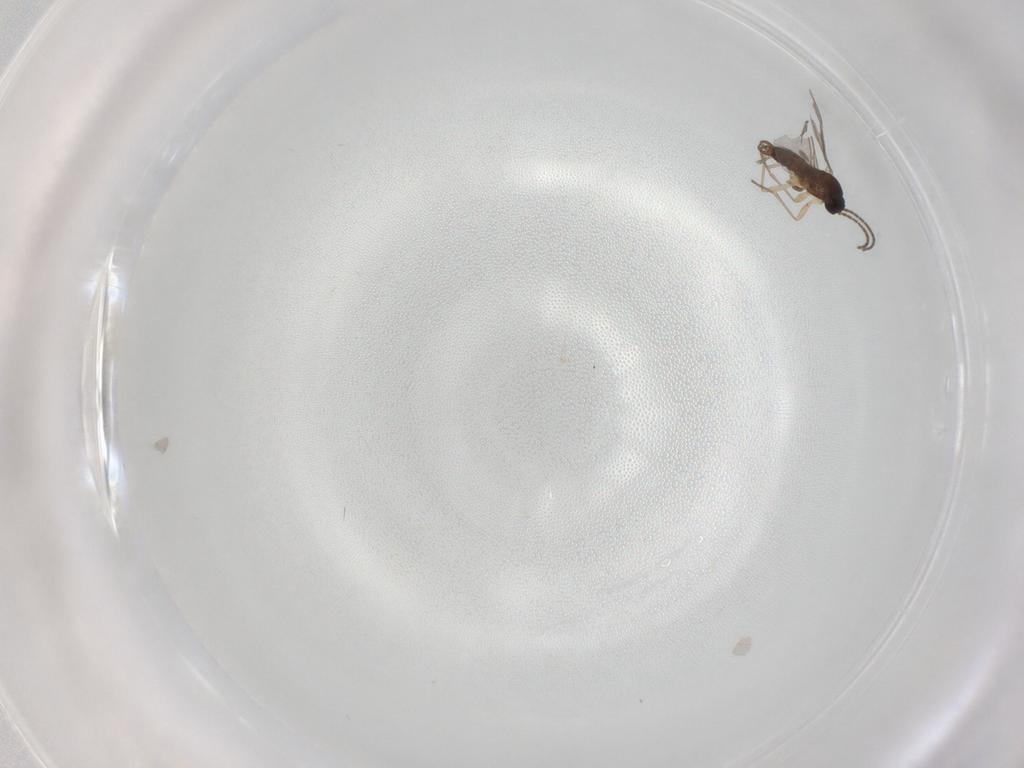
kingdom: Animalia
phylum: Arthropoda
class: Insecta
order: Diptera
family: Sciaridae
